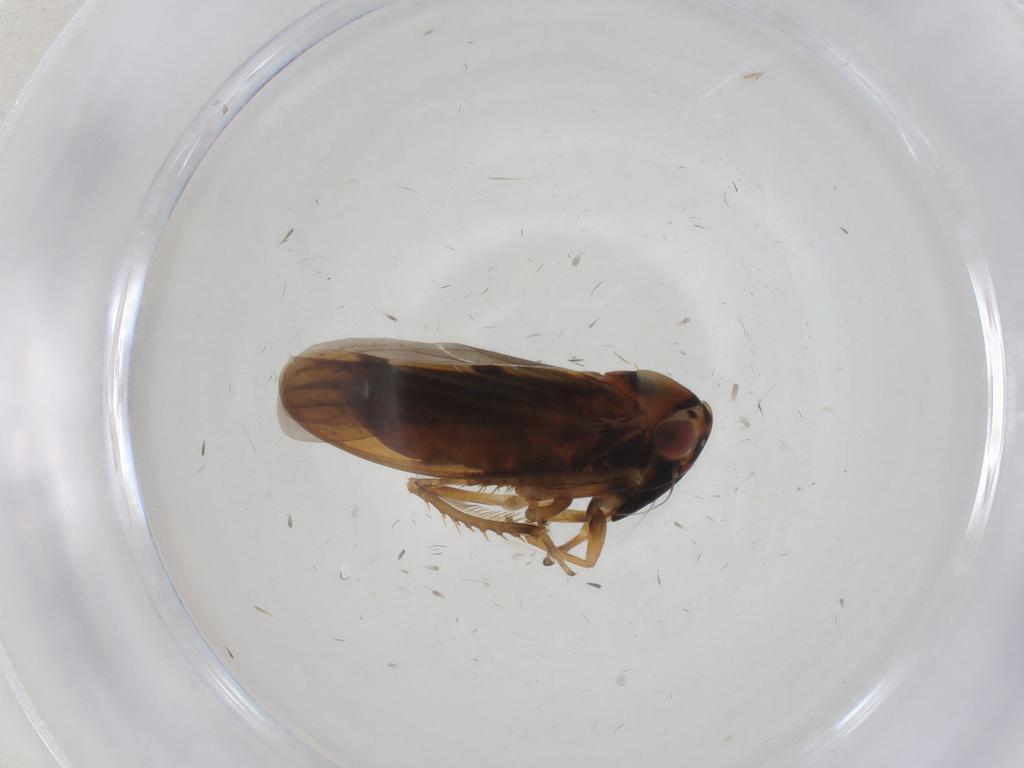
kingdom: Animalia
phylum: Arthropoda
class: Insecta
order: Hemiptera
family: Cicadellidae
